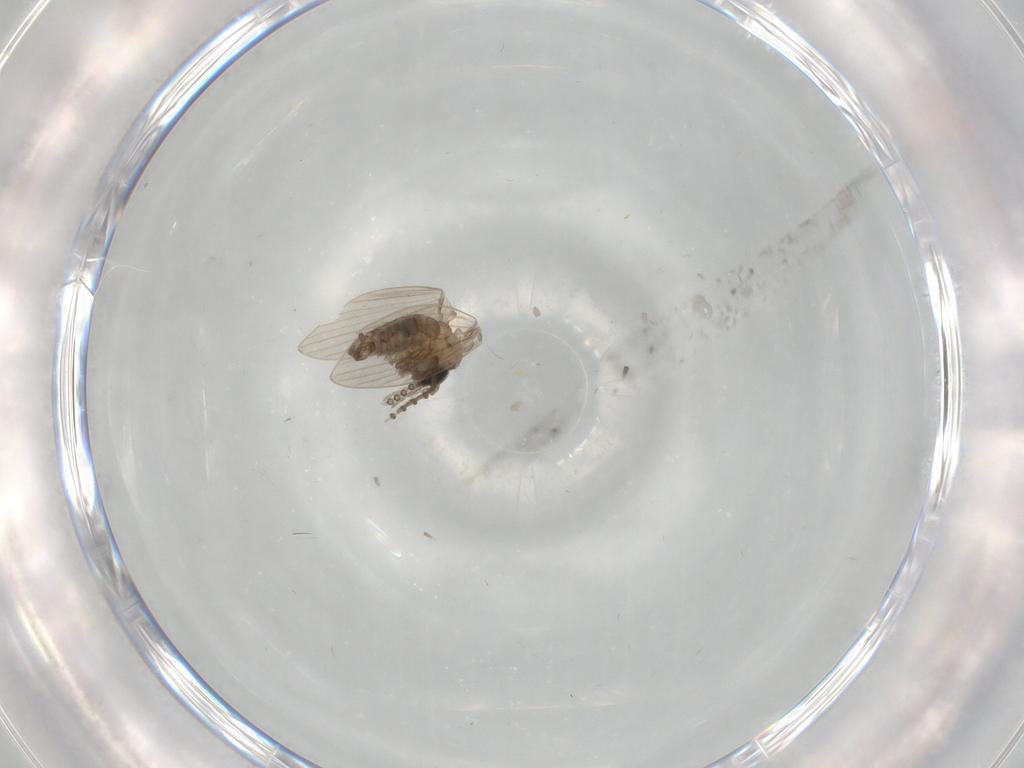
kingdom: Animalia
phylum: Arthropoda
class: Insecta
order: Diptera
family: Psychodidae
